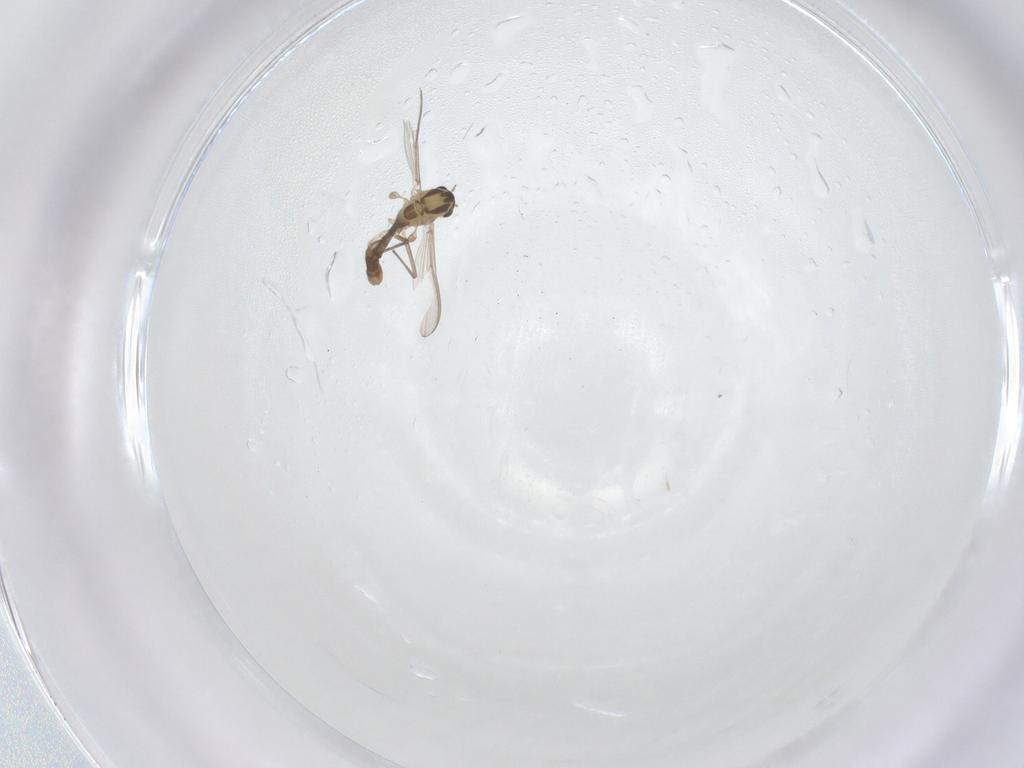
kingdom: Animalia
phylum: Arthropoda
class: Insecta
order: Diptera
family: Chironomidae
